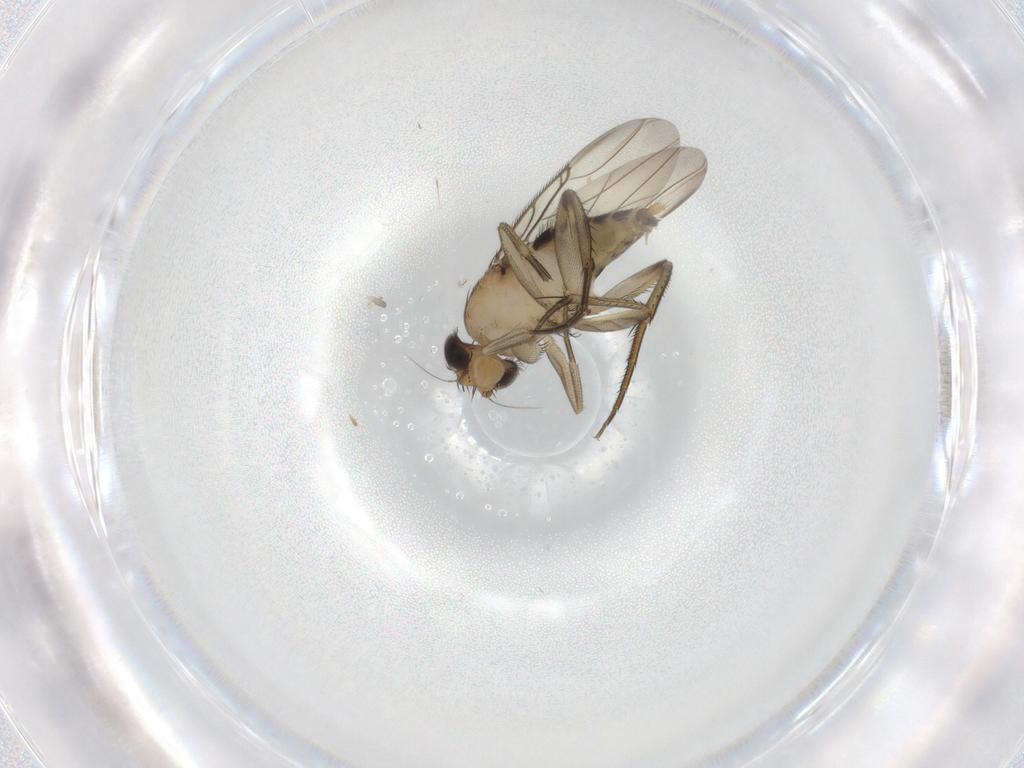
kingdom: Animalia
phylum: Arthropoda
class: Insecta
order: Diptera
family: Phoridae
